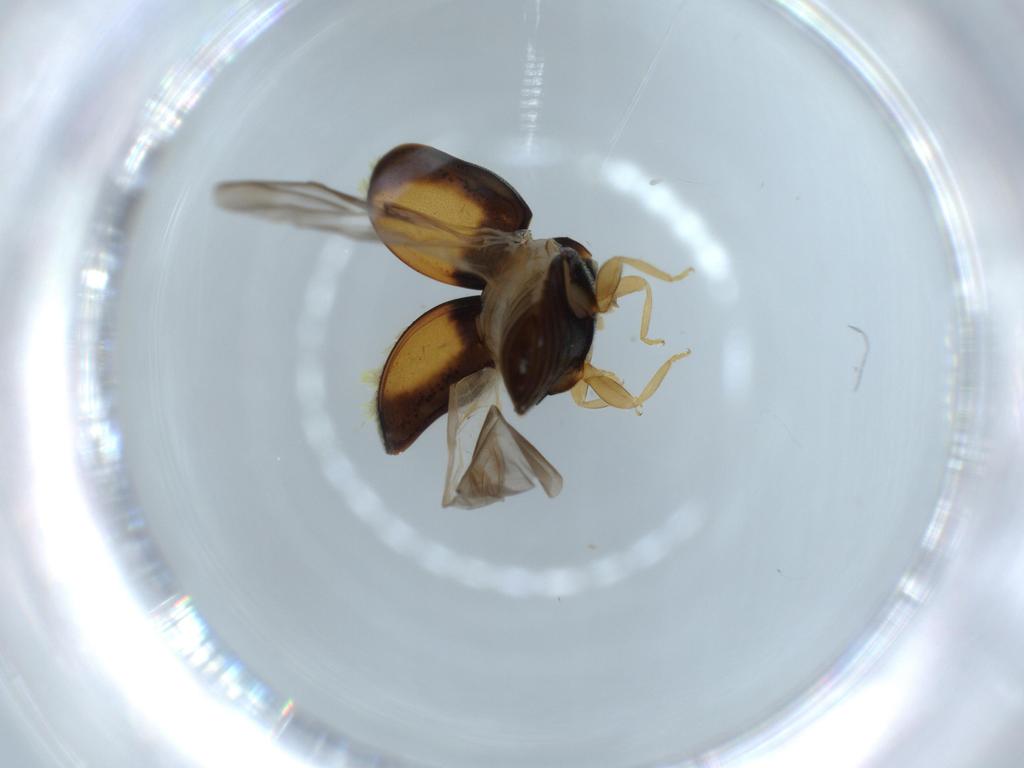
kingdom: Animalia
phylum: Arthropoda
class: Insecta
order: Coleoptera
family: Coccinellidae
